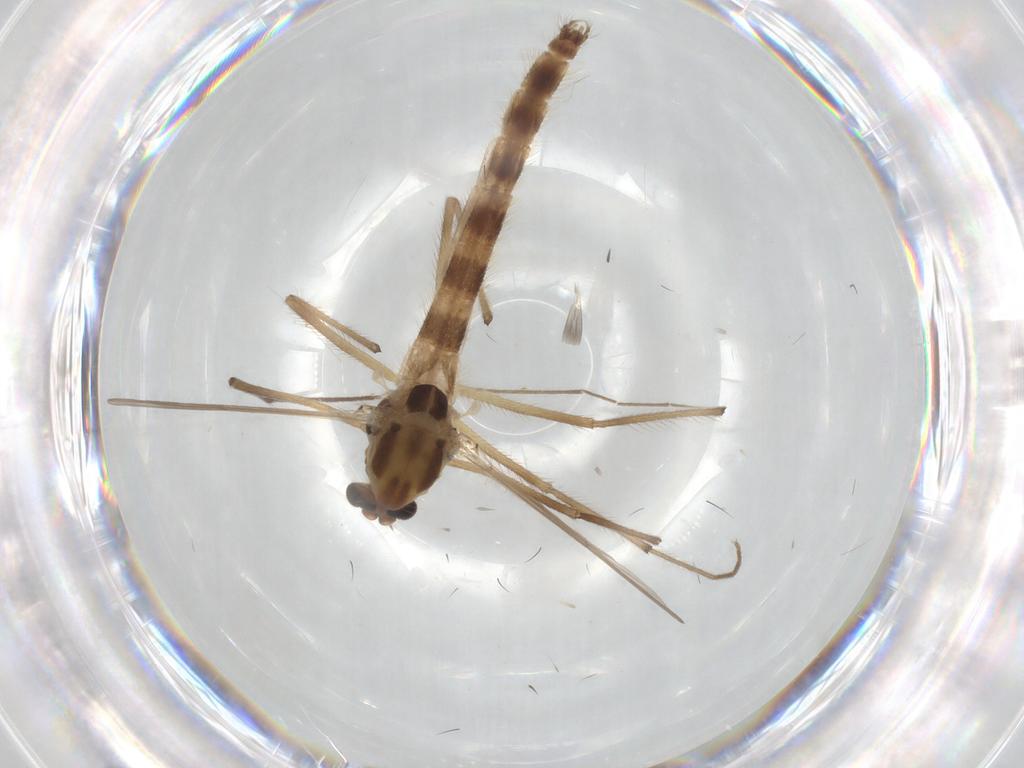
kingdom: Animalia
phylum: Arthropoda
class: Insecta
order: Diptera
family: Chironomidae
